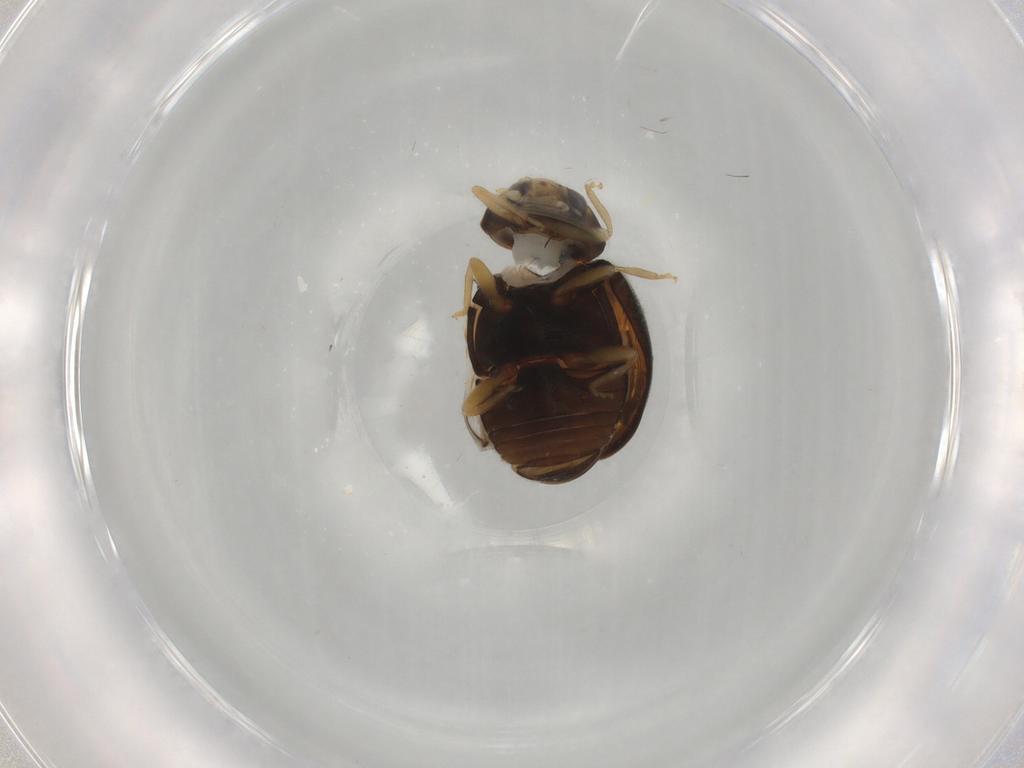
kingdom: Animalia
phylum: Arthropoda
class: Insecta
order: Coleoptera
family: Coccinellidae
